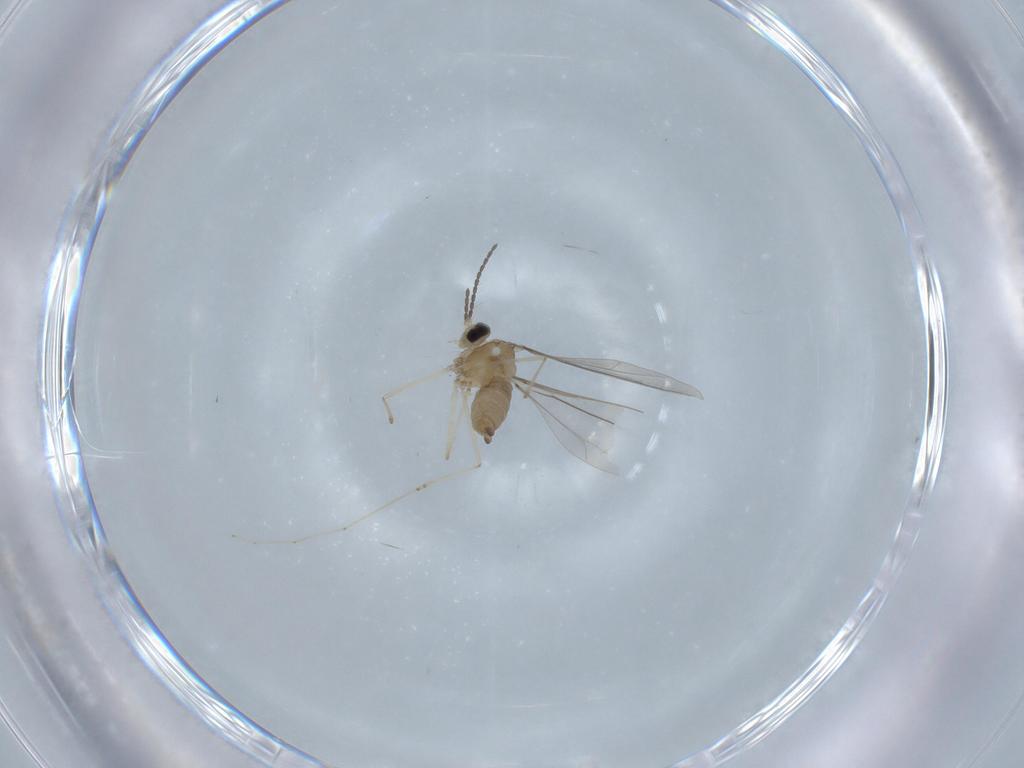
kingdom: Animalia
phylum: Arthropoda
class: Insecta
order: Diptera
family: Cecidomyiidae
